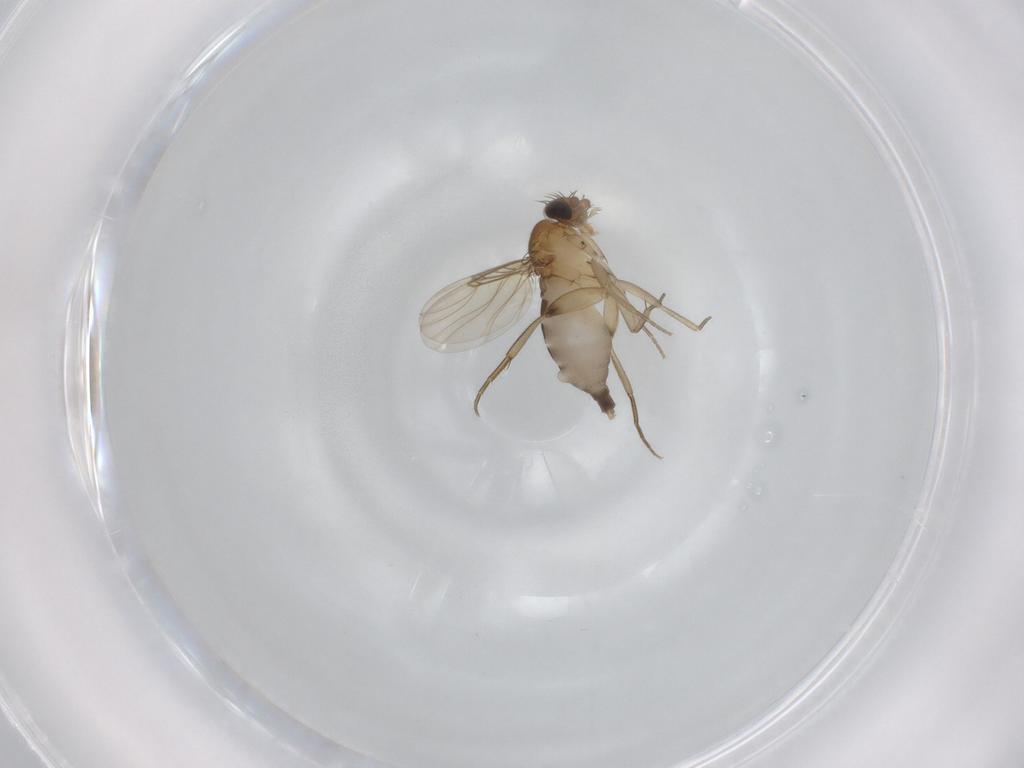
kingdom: Animalia
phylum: Arthropoda
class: Insecta
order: Diptera
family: Phoridae
